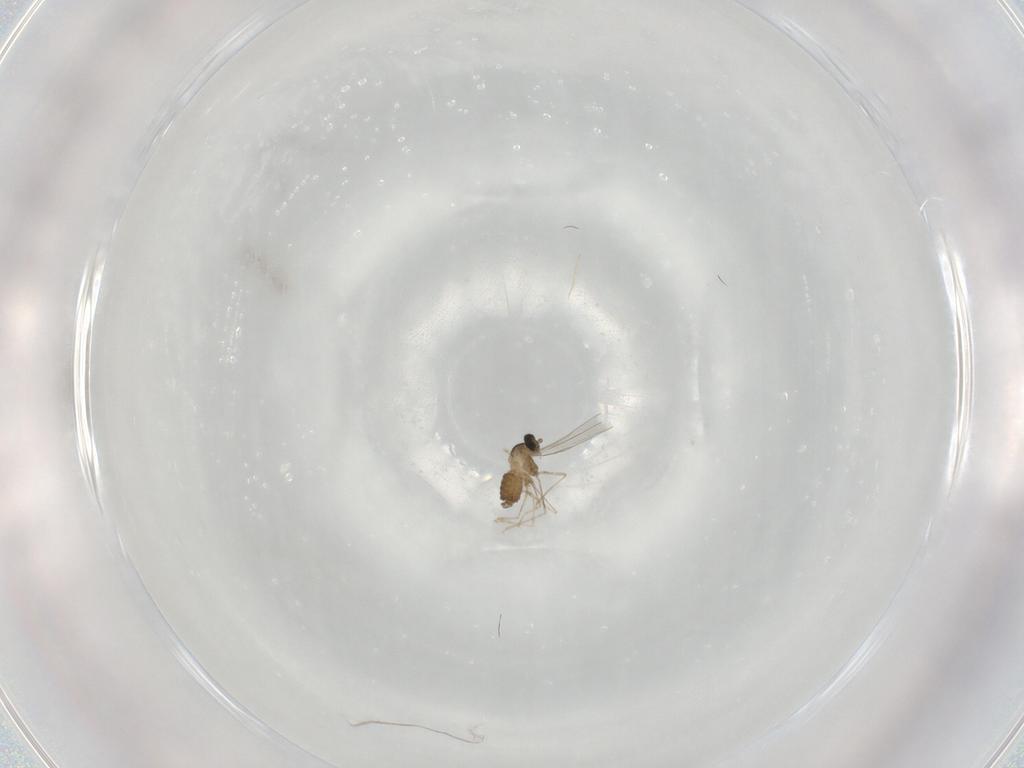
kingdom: Animalia
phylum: Arthropoda
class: Insecta
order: Diptera
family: Cecidomyiidae
